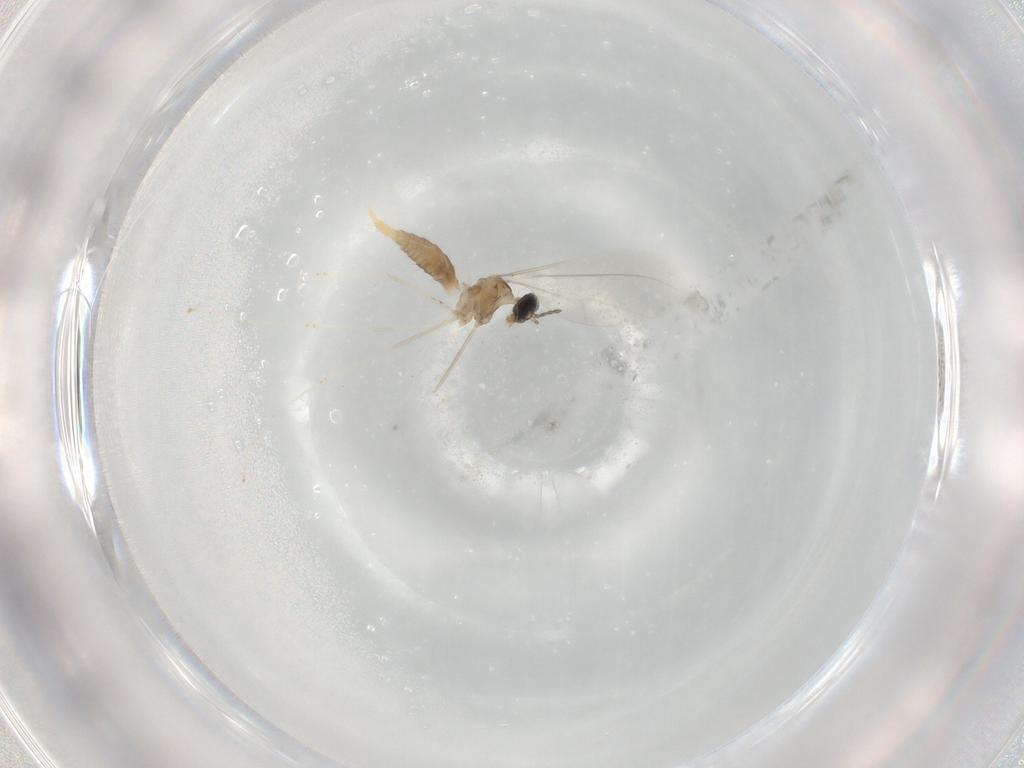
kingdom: Animalia
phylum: Arthropoda
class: Insecta
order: Diptera
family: Cecidomyiidae
